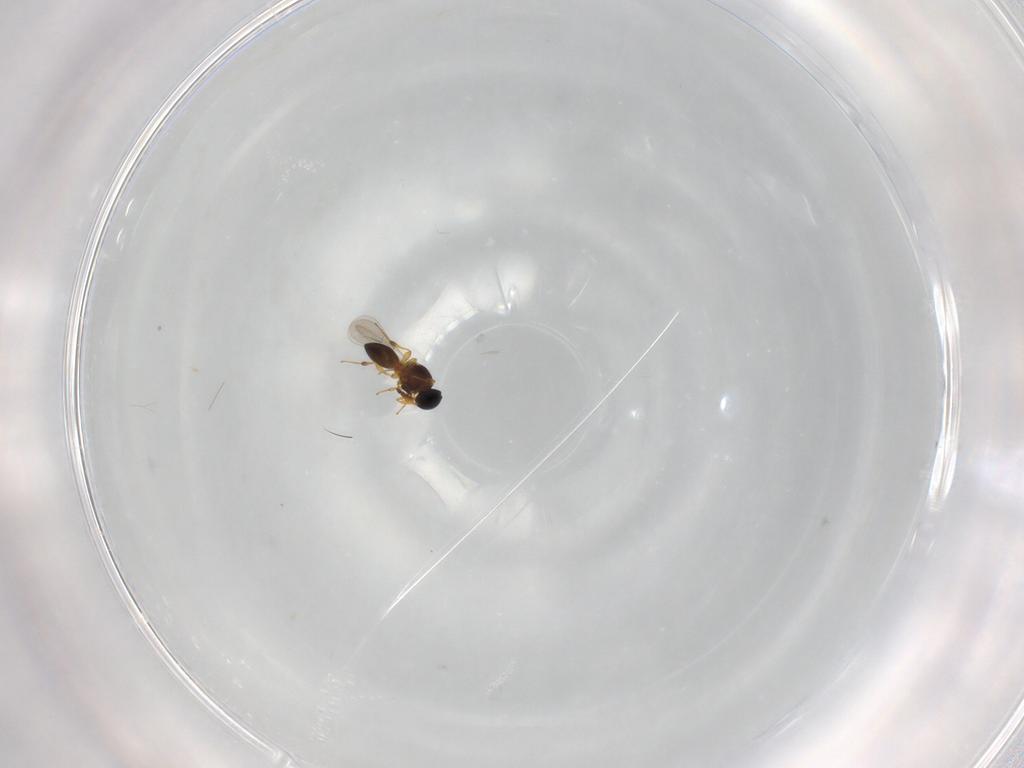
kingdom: Animalia
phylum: Arthropoda
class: Insecta
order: Hymenoptera
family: Platygastridae
